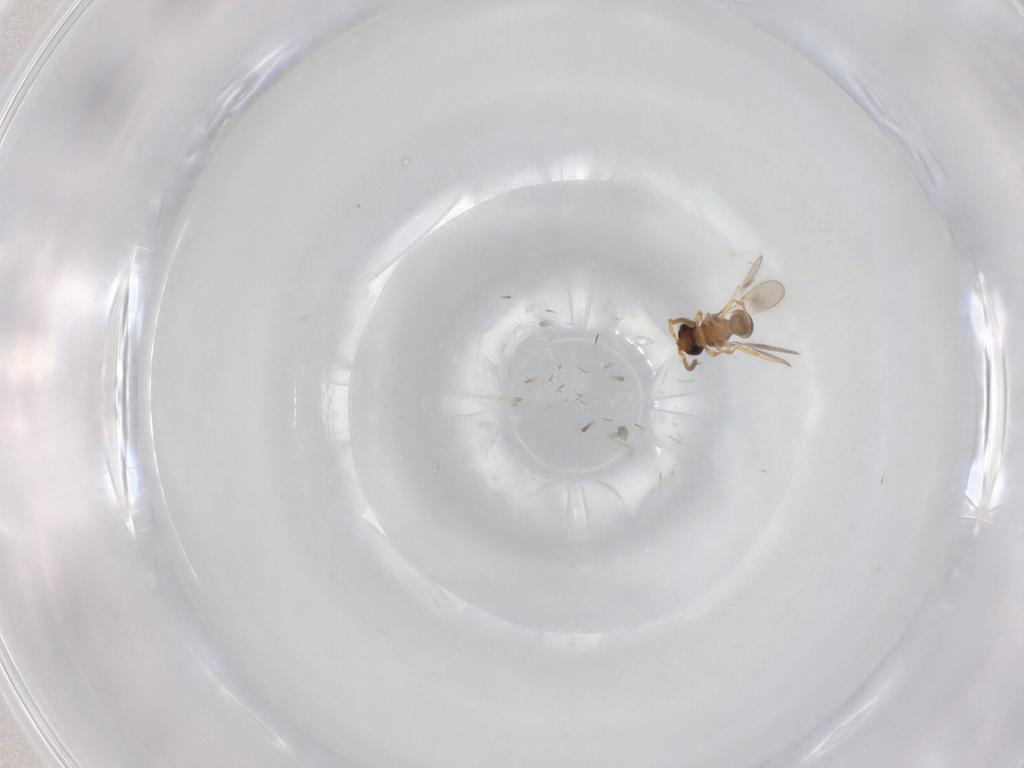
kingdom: Animalia
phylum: Arthropoda
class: Insecta
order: Hymenoptera
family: Scelionidae
